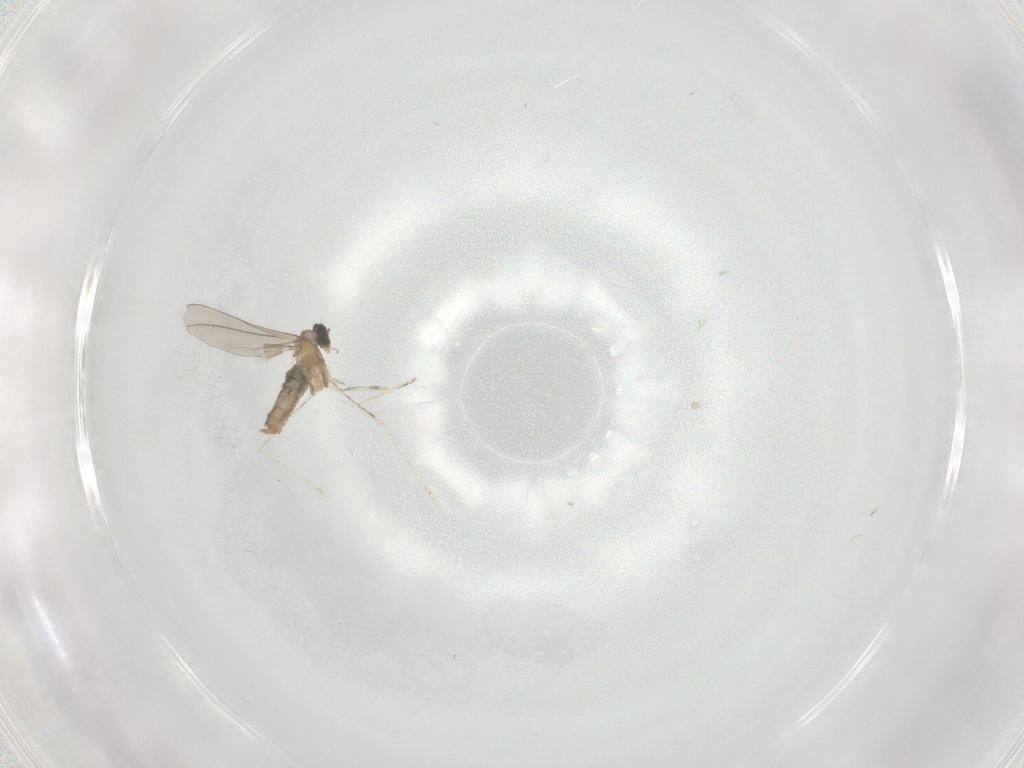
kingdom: Animalia
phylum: Arthropoda
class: Insecta
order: Diptera
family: Cecidomyiidae
